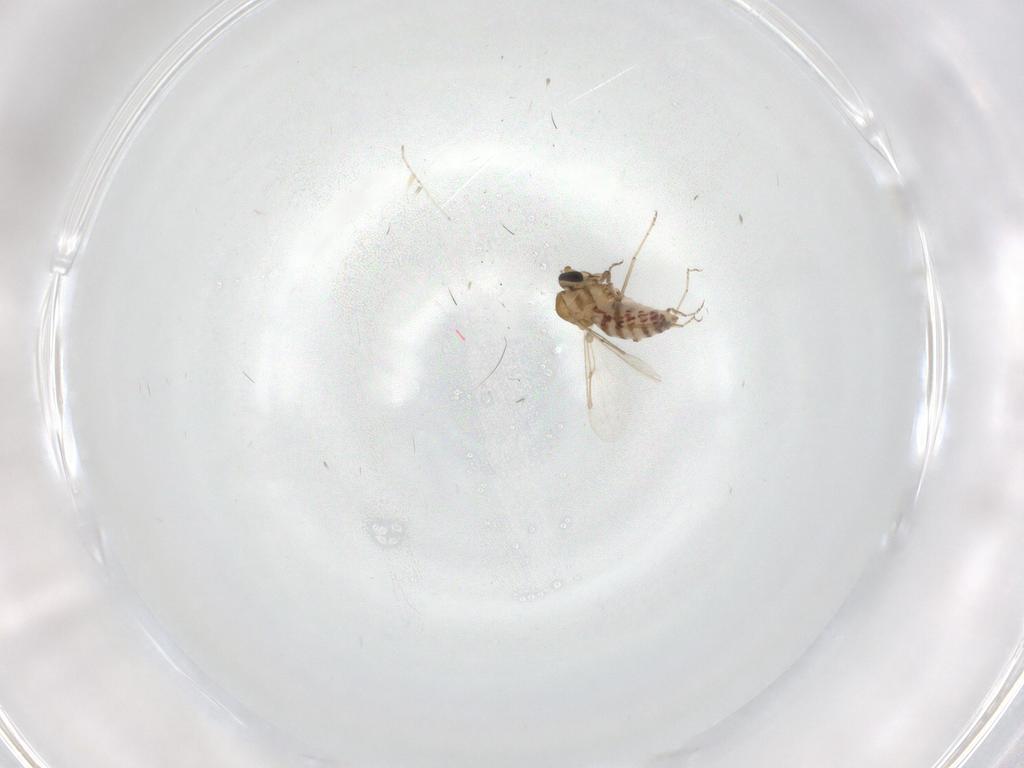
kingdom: Animalia
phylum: Arthropoda
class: Insecta
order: Diptera
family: Ceratopogonidae
